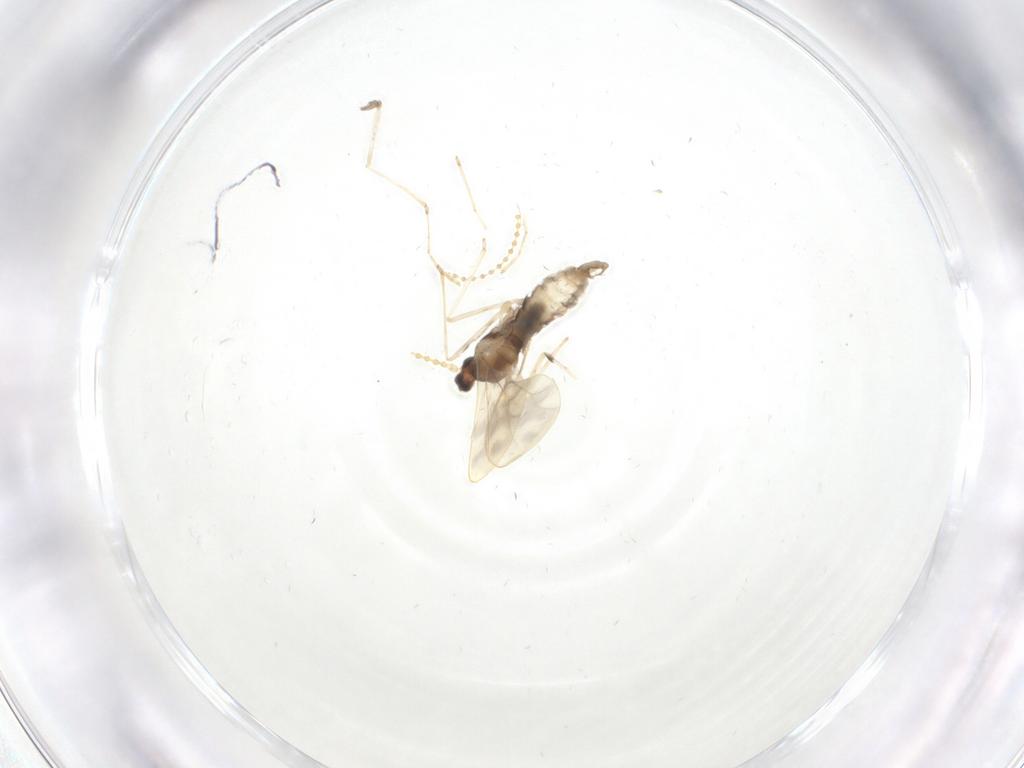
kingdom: Animalia
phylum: Arthropoda
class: Insecta
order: Diptera
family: Cecidomyiidae
